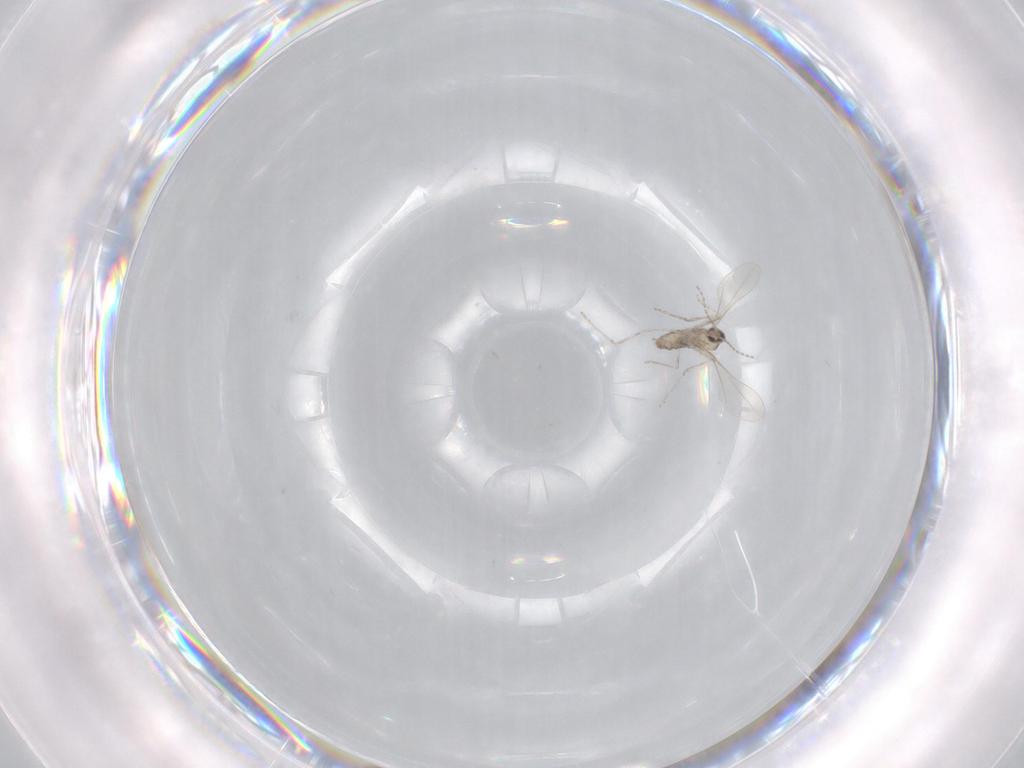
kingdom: Animalia
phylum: Arthropoda
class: Insecta
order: Diptera
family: Cecidomyiidae
